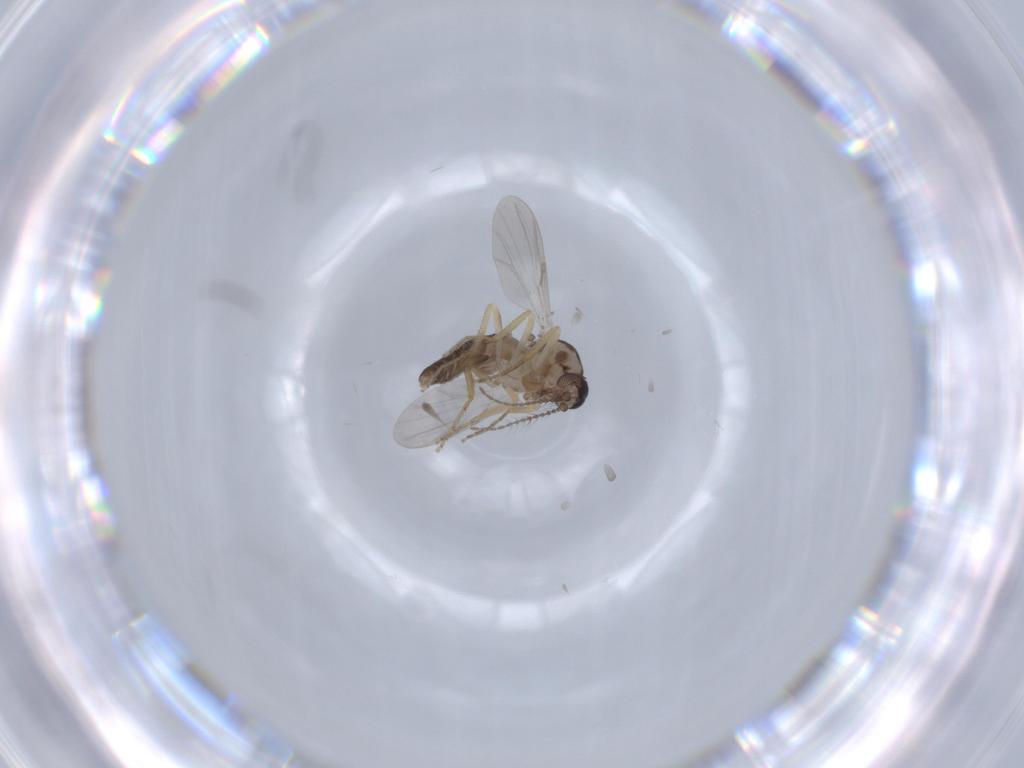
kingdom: Animalia
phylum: Arthropoda
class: Insecta
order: Diptera
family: Ceratopogonidae
